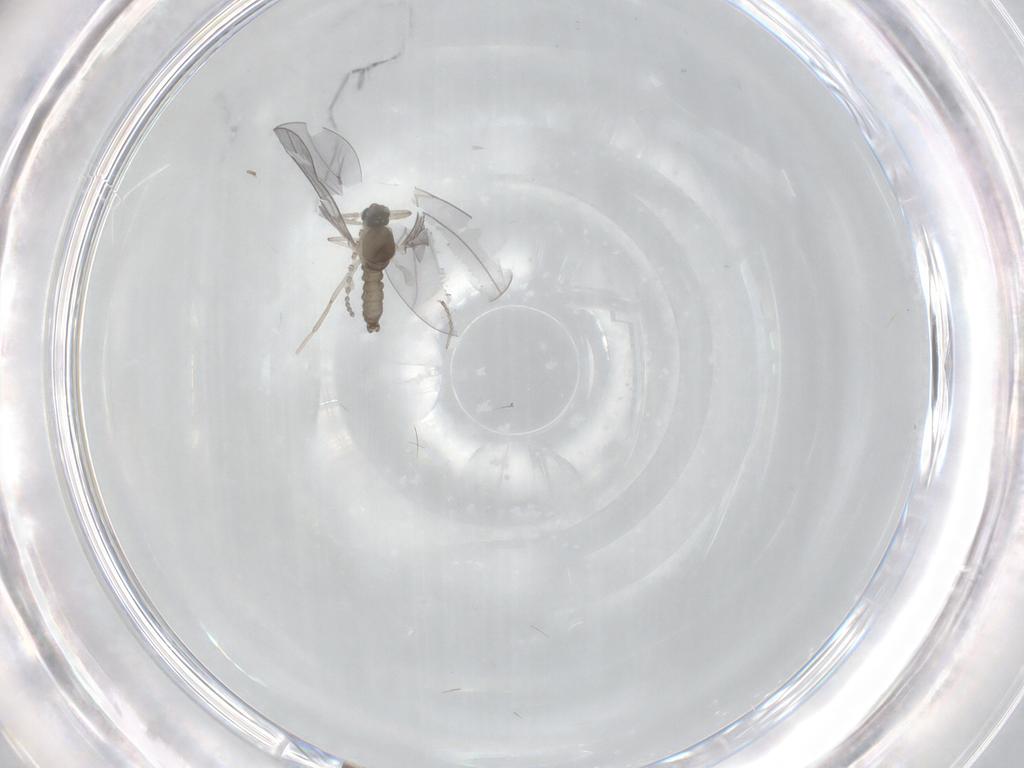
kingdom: Animalia
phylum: Arthropoda
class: Insecta
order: Diptera
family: Cecidomyiidae
